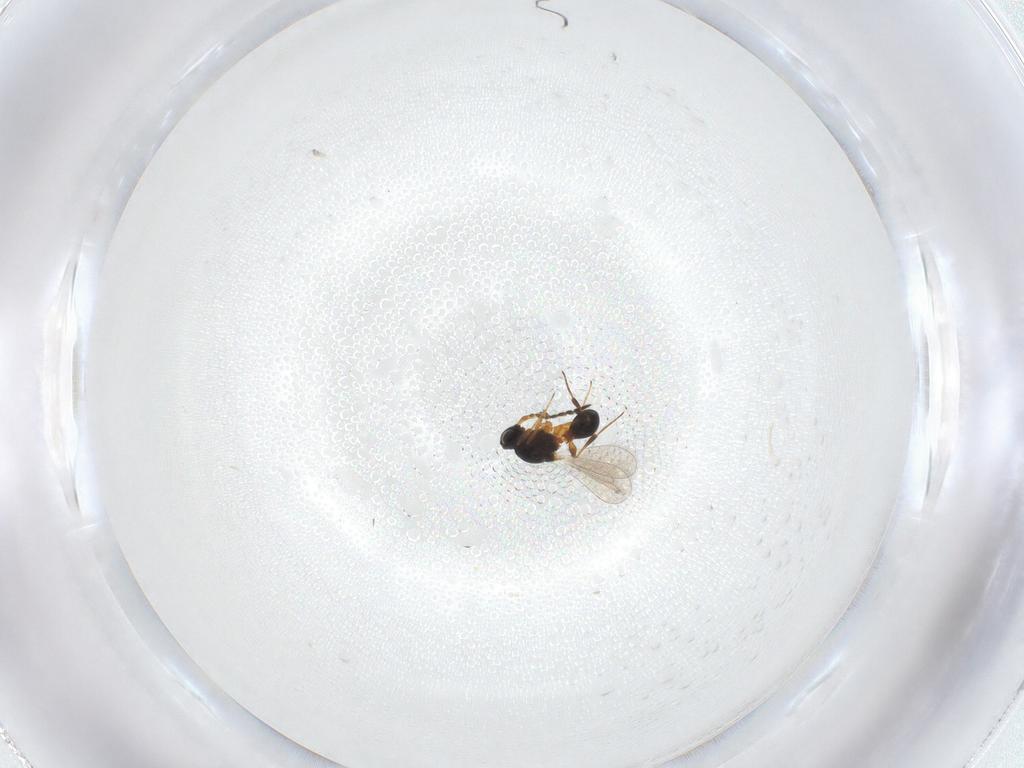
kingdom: Animalia
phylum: Arthropoda
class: Insecta
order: Hymenoptera
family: Platygastridae
